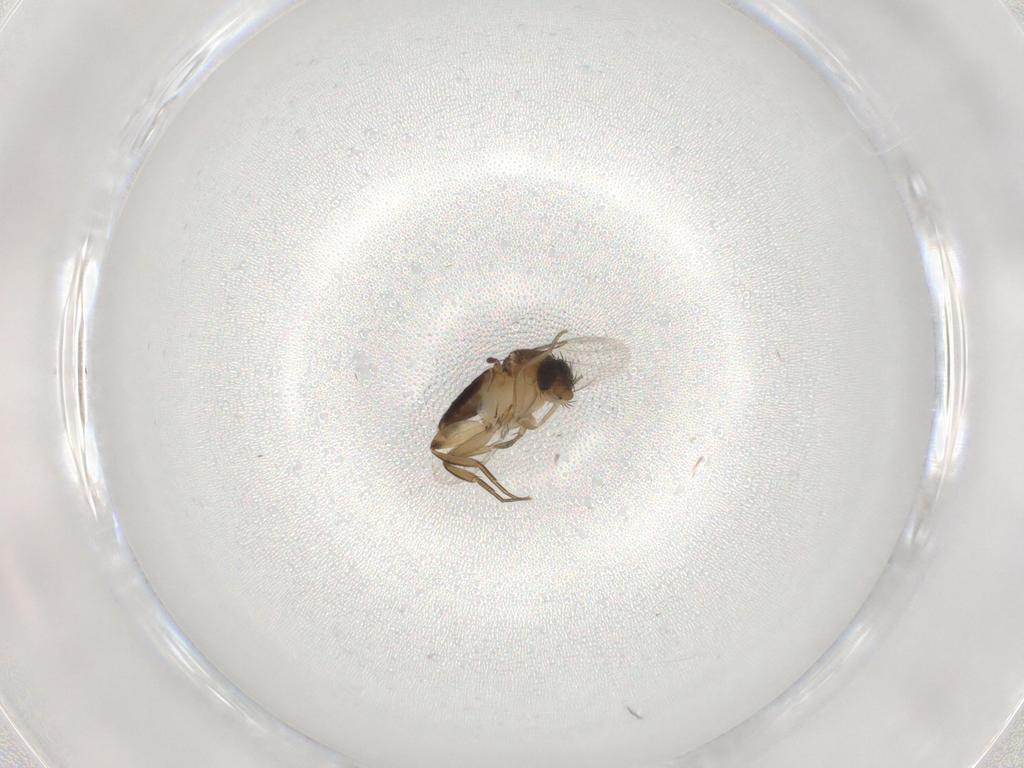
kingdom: Animalia
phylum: Arthropoda
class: Insecta
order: Diptera
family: Phoridae
